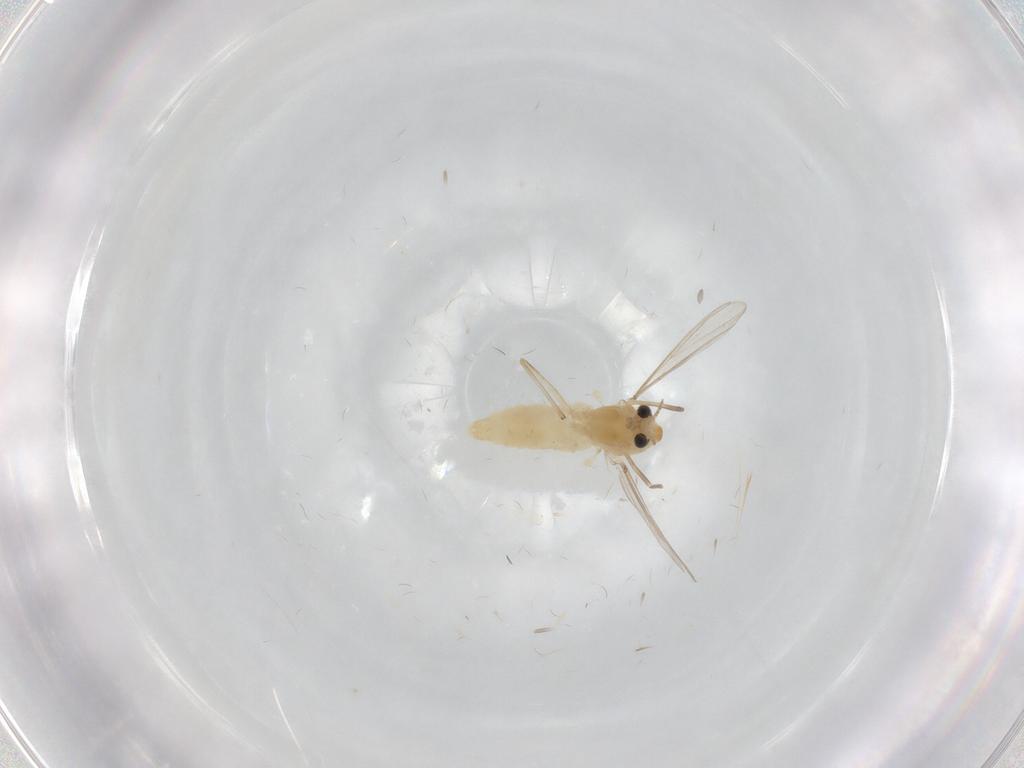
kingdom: Animalia
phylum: Arthropoda
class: Insecta
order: Diptera
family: Chironomidae
